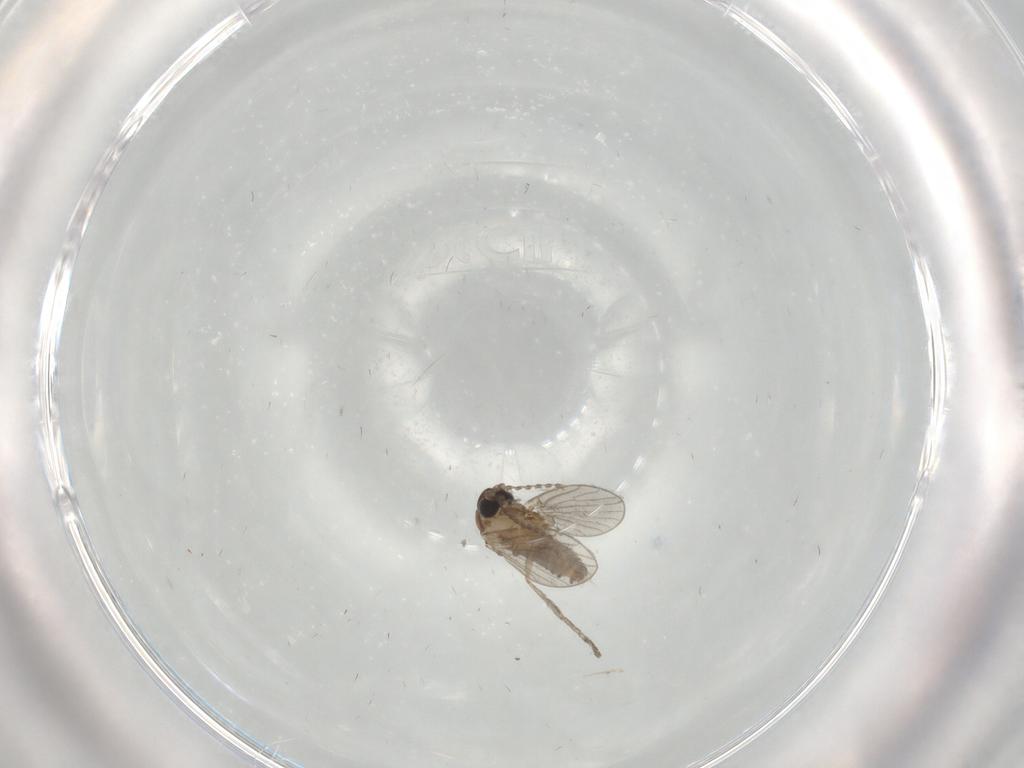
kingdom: Animalia
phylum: Arthropoda
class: Insecta
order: Diptera
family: Psychodidae
